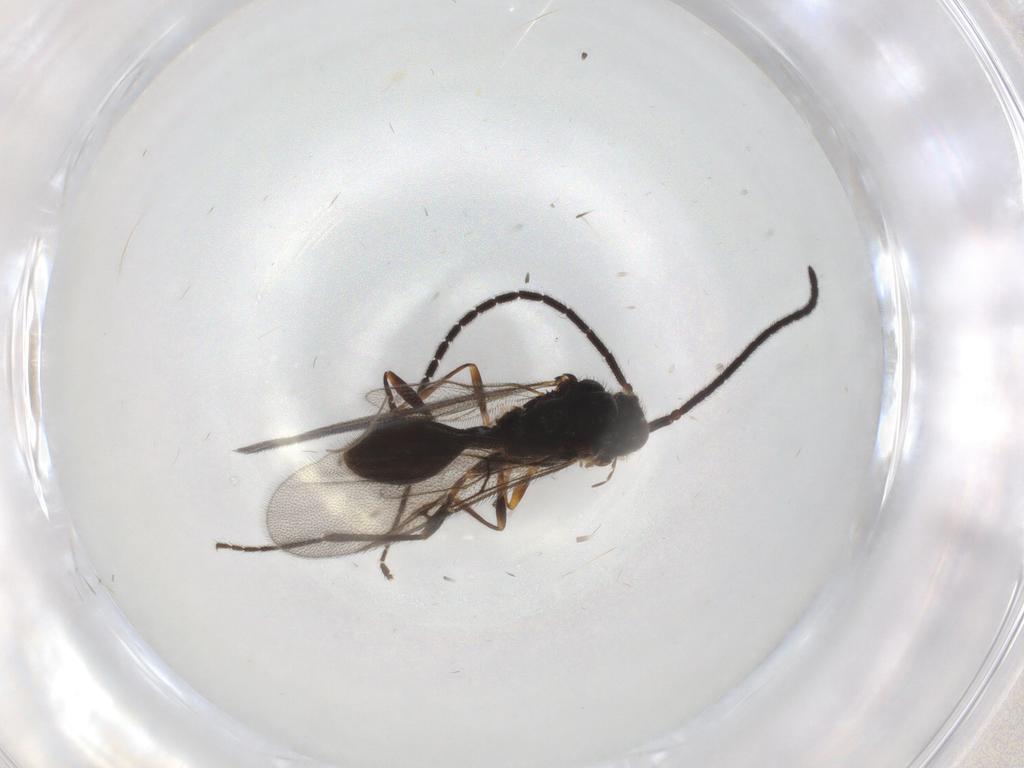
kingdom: Animalia
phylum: Arthropoda
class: Insecta
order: Hymenoptera
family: Diapriidae
